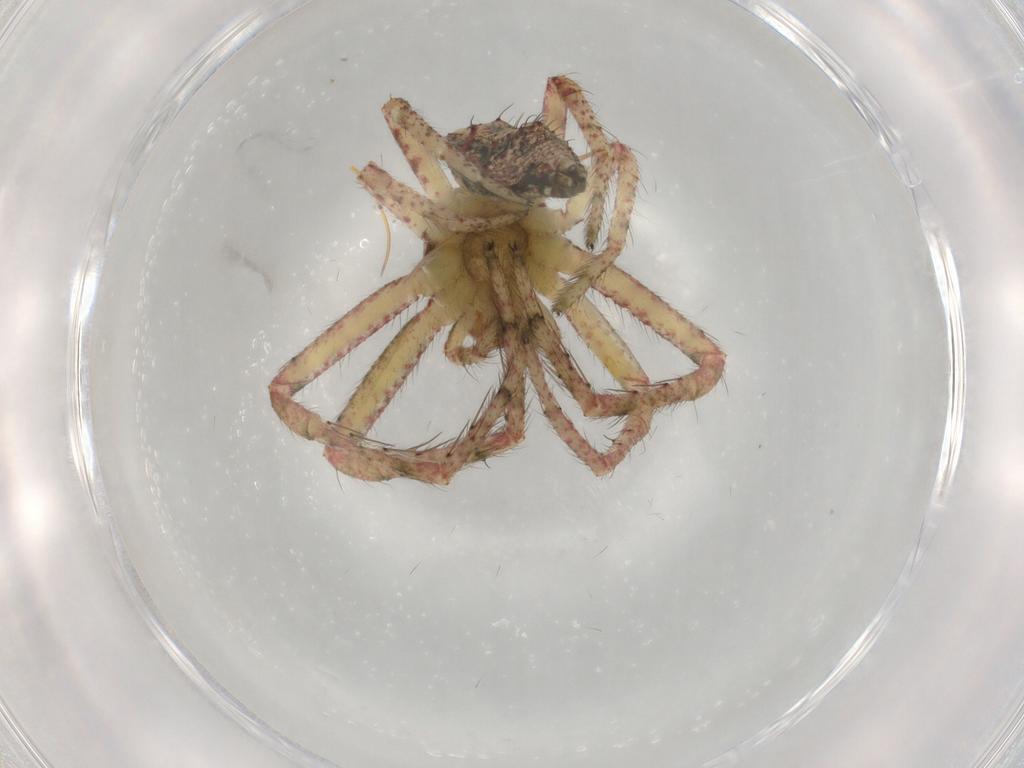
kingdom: Animalia
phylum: Arthropoda
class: Arachnida
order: Araneae
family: Thomisidae
